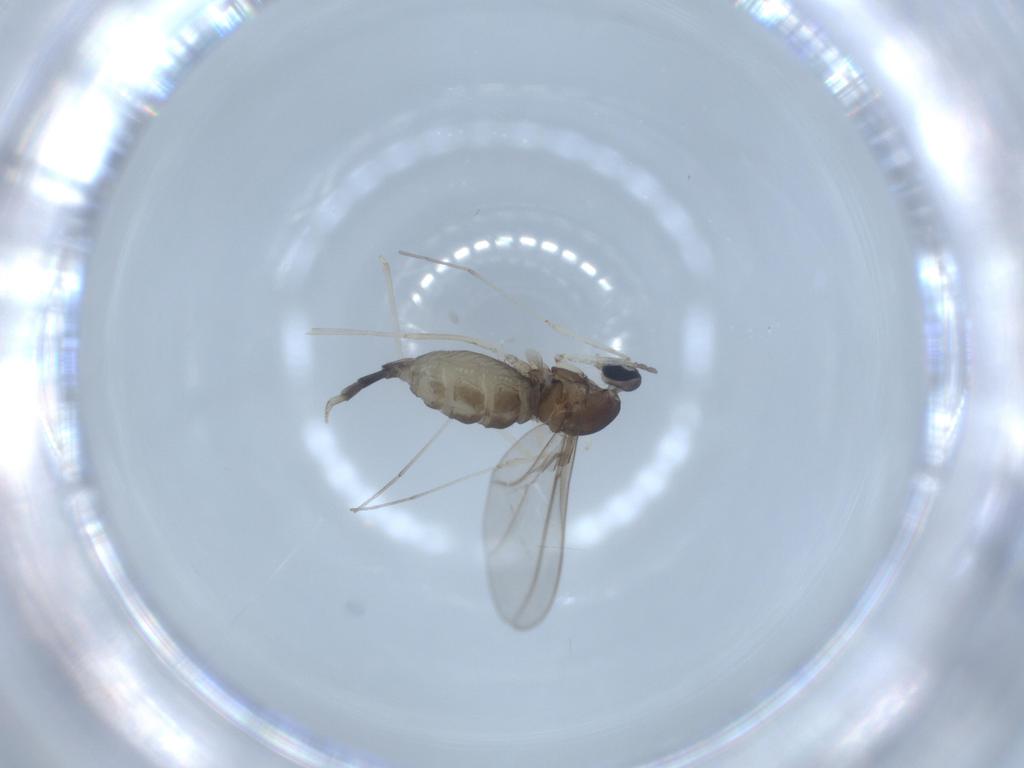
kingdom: Animalia
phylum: Arthropoda
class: Insecta
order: Diptera
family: Cecidomyiidae
